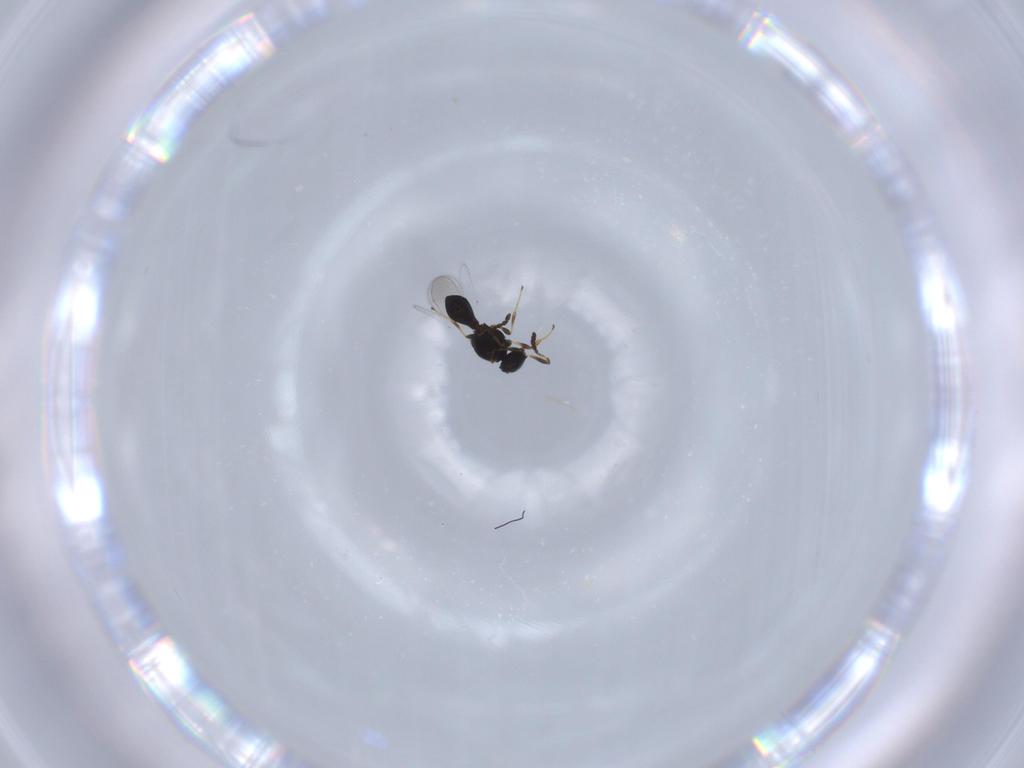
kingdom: Animalia
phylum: Arthropoda
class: Insecta
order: Hymenoptera
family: Platygastridae
